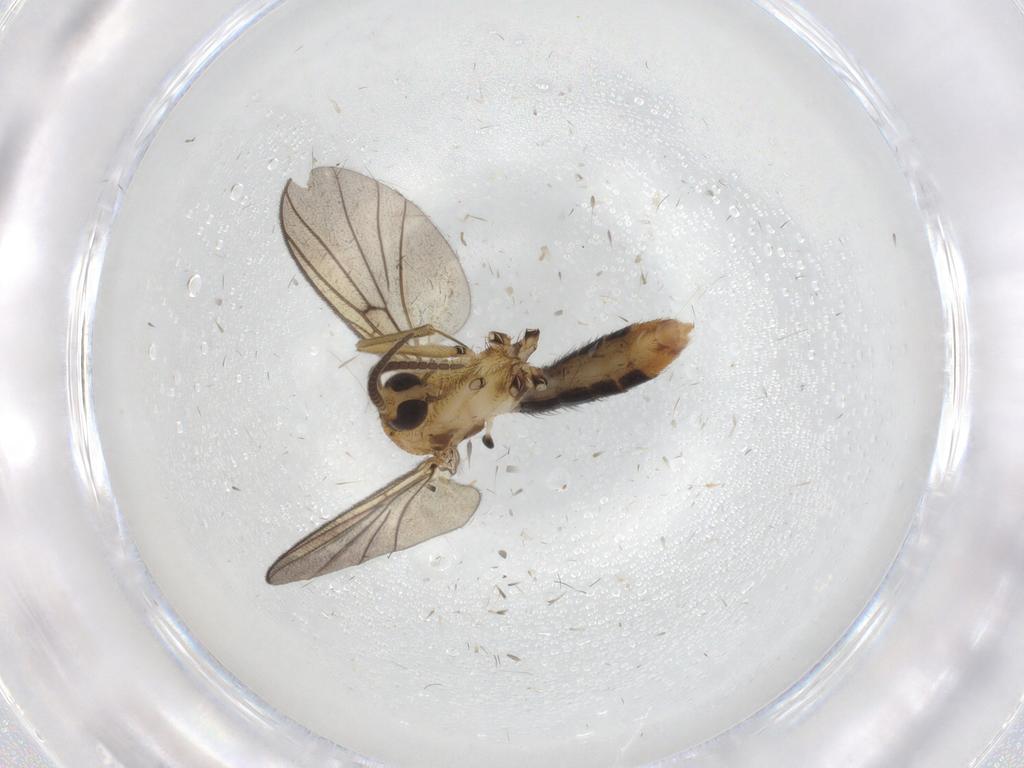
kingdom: Animalia
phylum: Arthropoda
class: Insecta
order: Diptera
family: Sciaridae
